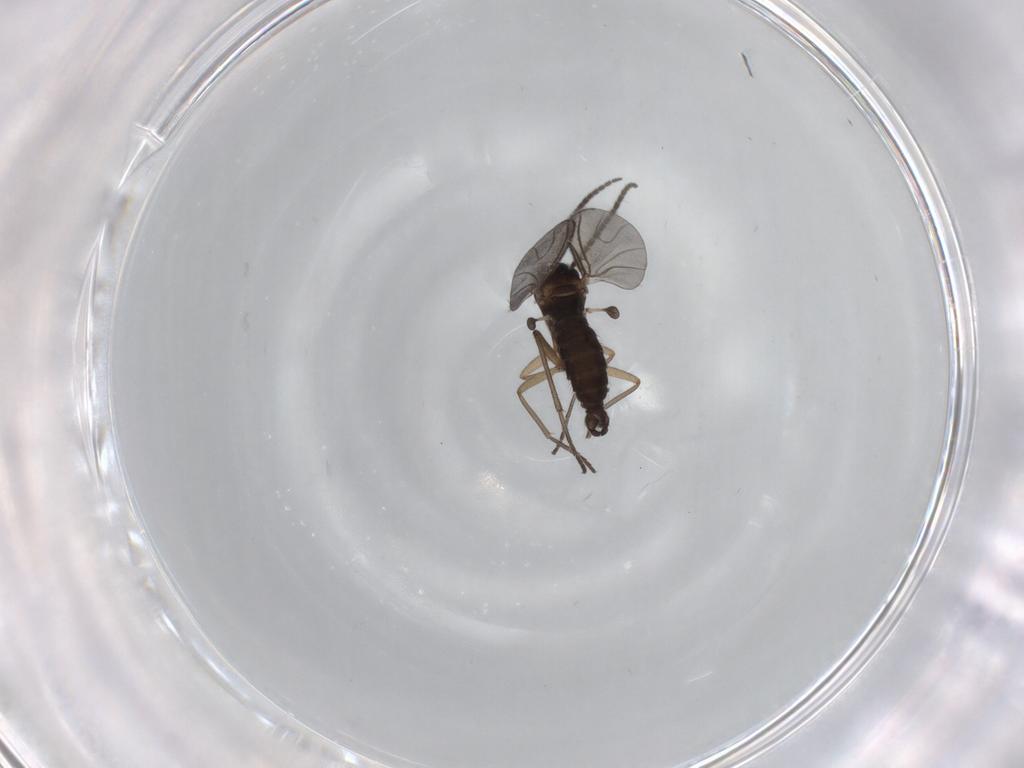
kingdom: Animalia
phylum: Arthropoda
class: Insecta
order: Diptera
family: Sciaridae
